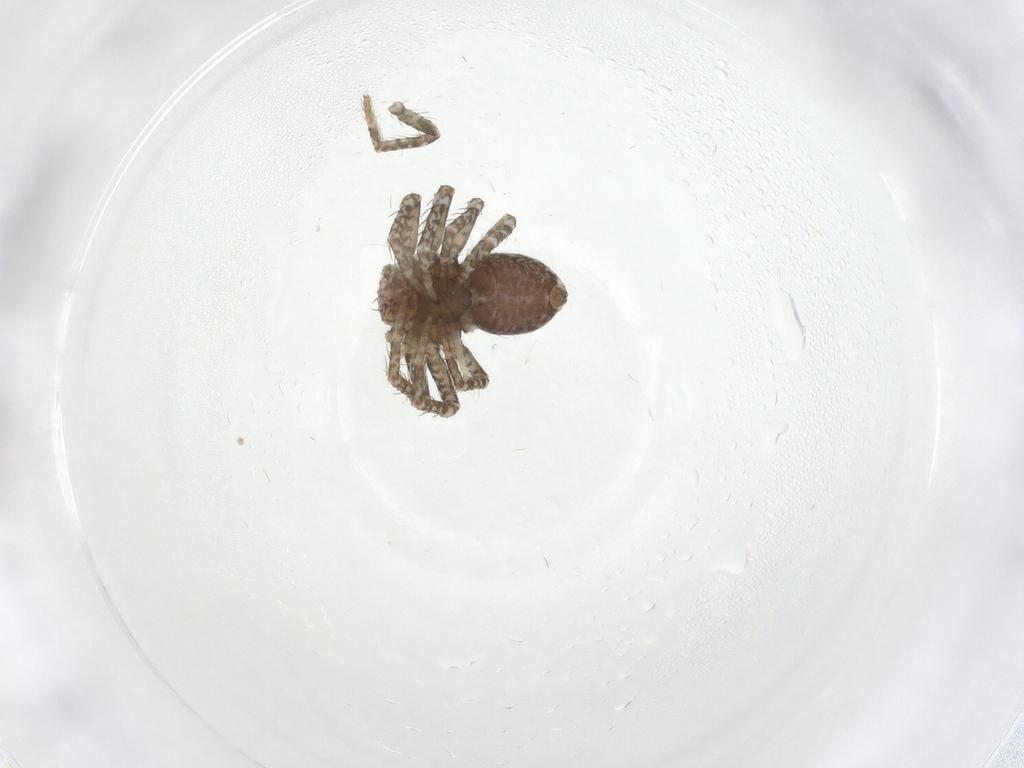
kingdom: Animalia
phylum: Arthropoda
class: Arachnida
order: Araneae
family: Thomisidae
